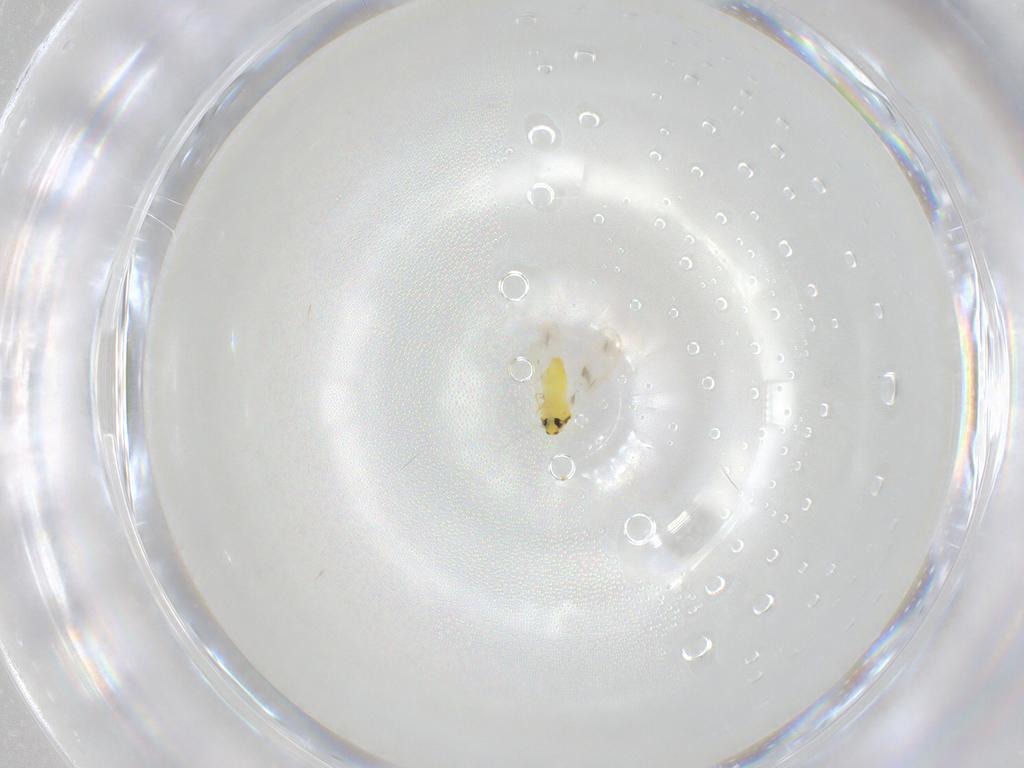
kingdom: Animalia
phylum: Arthropoda
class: Insecta
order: Hemiptera
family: Aleyrodidae
